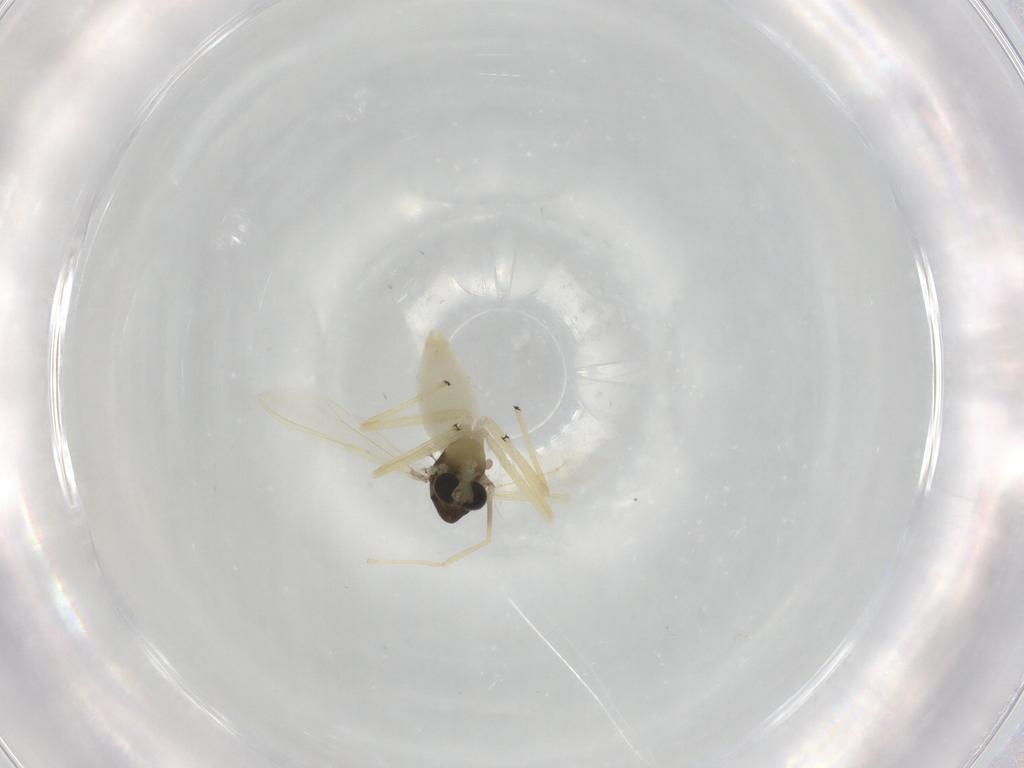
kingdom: Animalia
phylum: Arthropoda
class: Insecta
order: Diptera
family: Chironomidae
